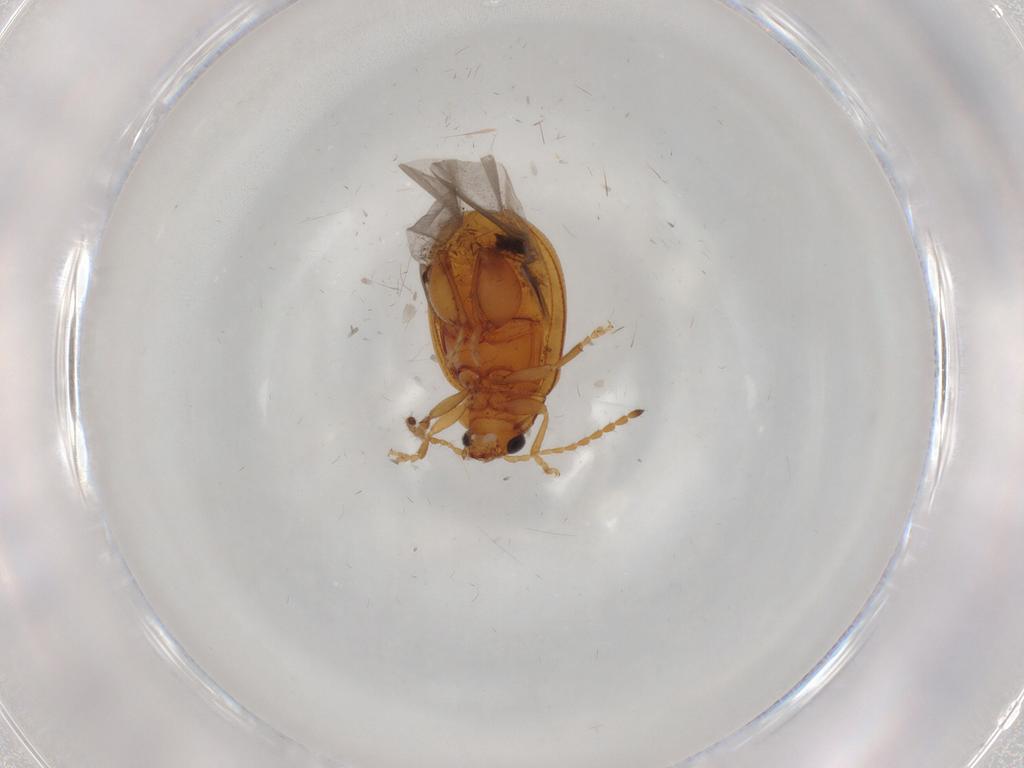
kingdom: Animalia
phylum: Arthropoda
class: Insecta
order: Coleoptera
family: Chrysomelidae
